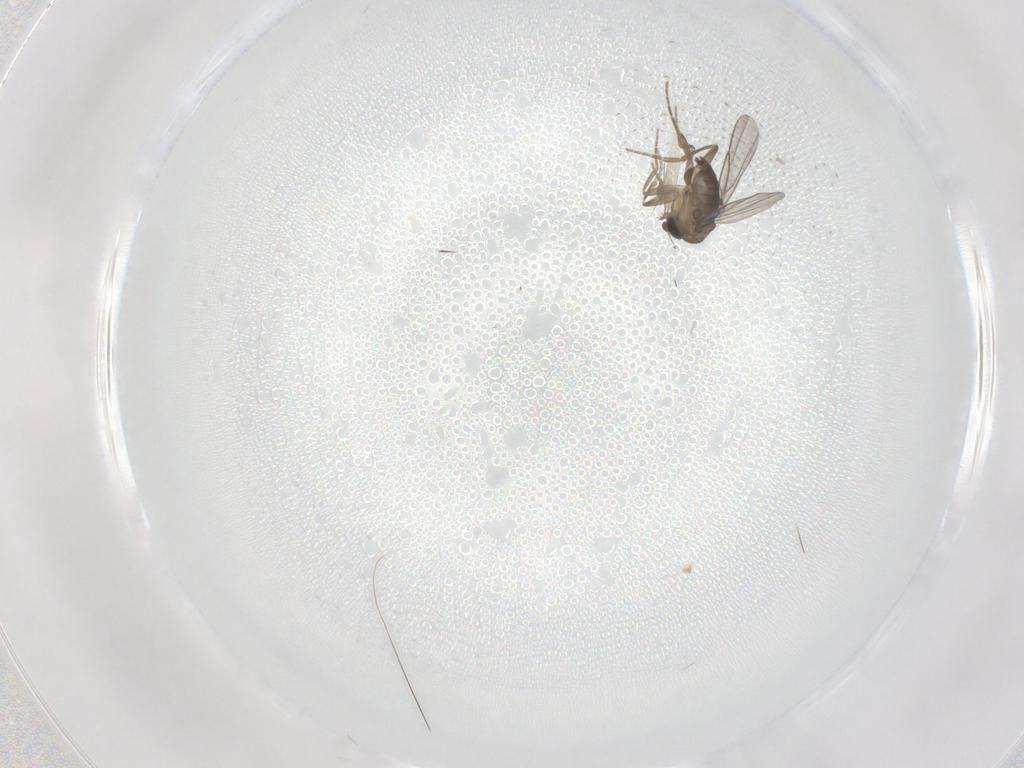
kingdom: Animalia
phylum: Arthropoda
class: Insecta
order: Diptera
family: Phoridae
